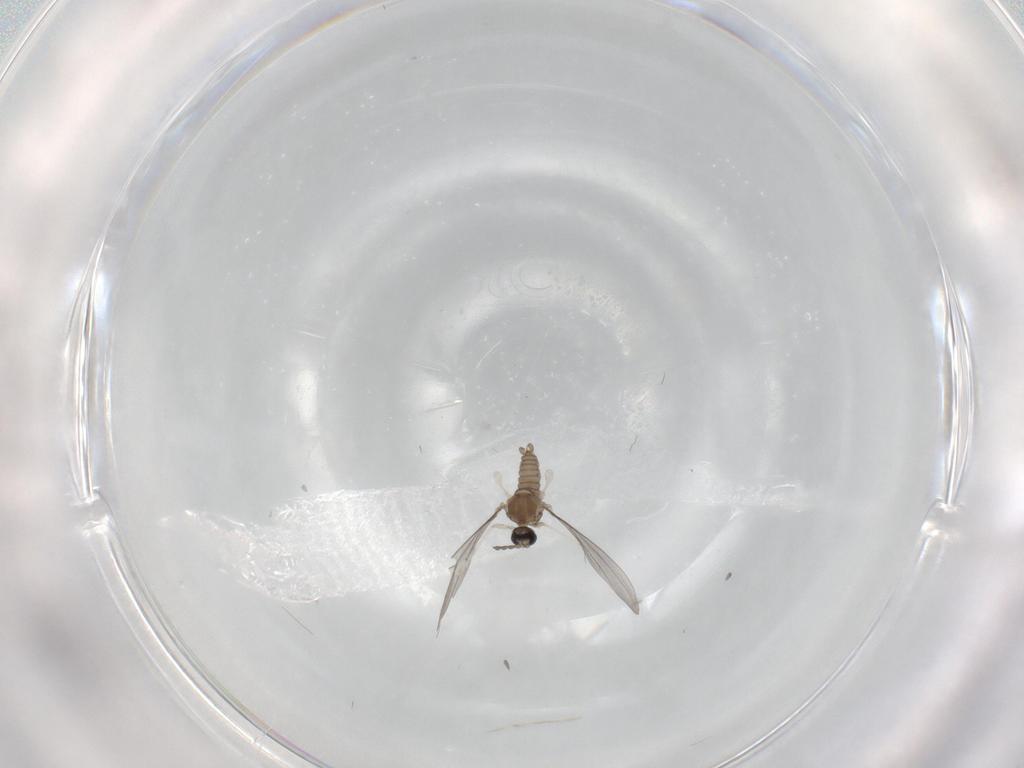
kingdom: Animalia
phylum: Arthropoda
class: Insecta
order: Diptera
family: Cecidomyiidae
